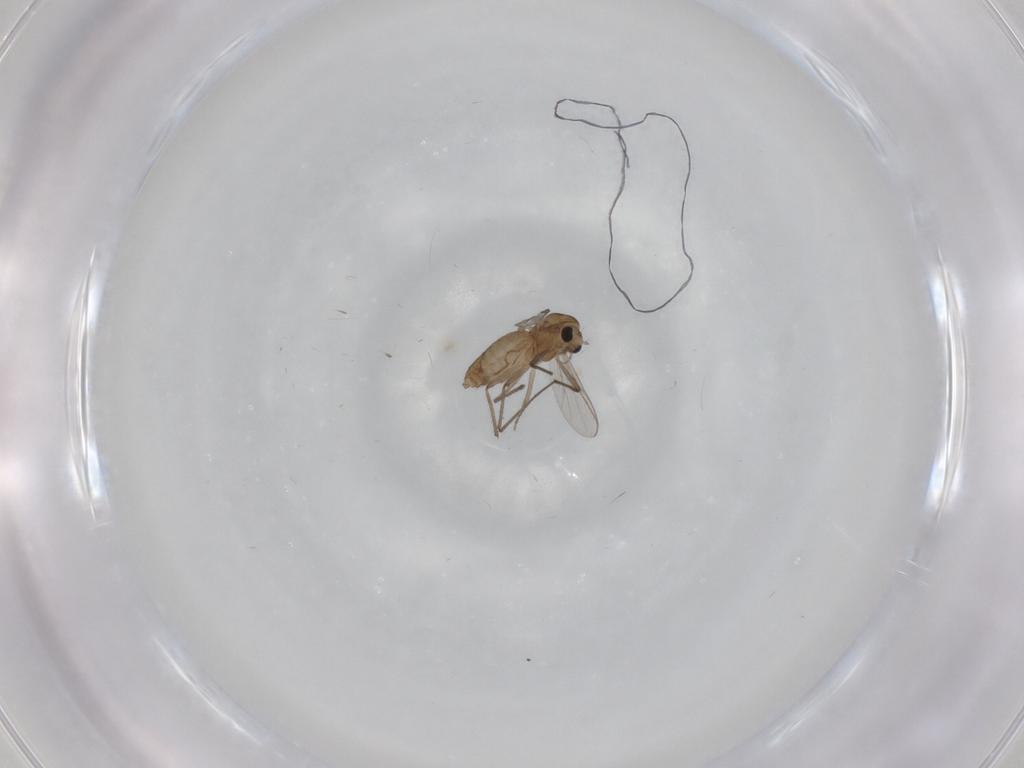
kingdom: Animalia
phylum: Arthropoda
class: Insecta
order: Diptera
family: Chironomidae
